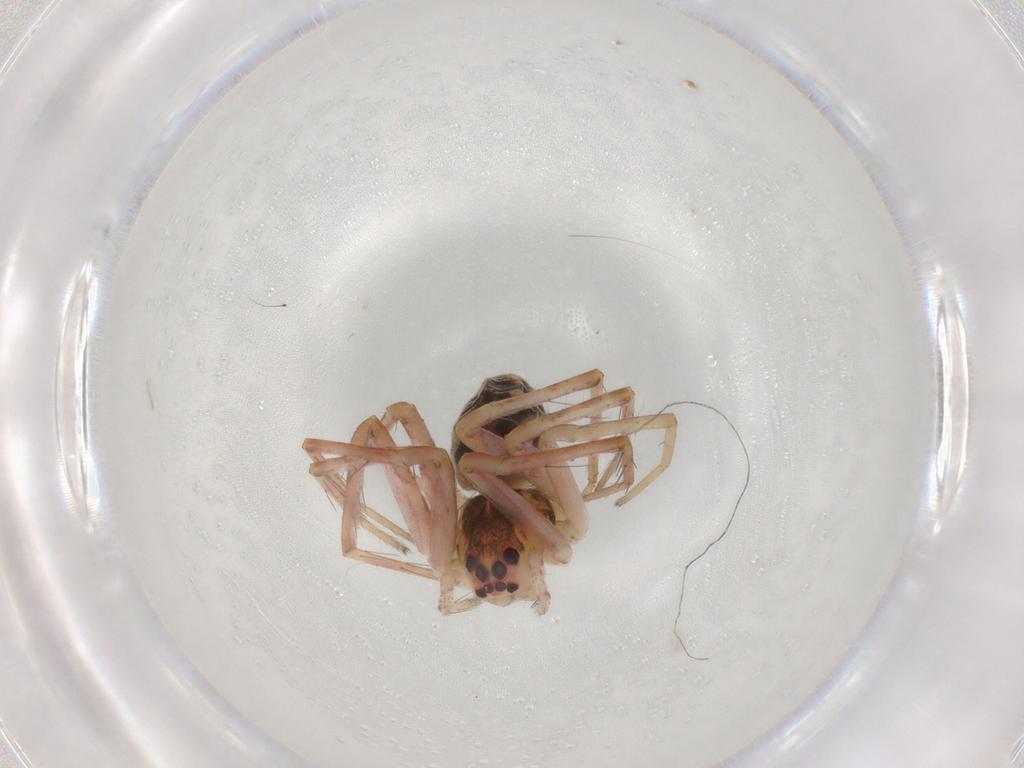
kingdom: Animalia
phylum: Arthropoda
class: Arachnida
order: Araneae
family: Pisauridae
